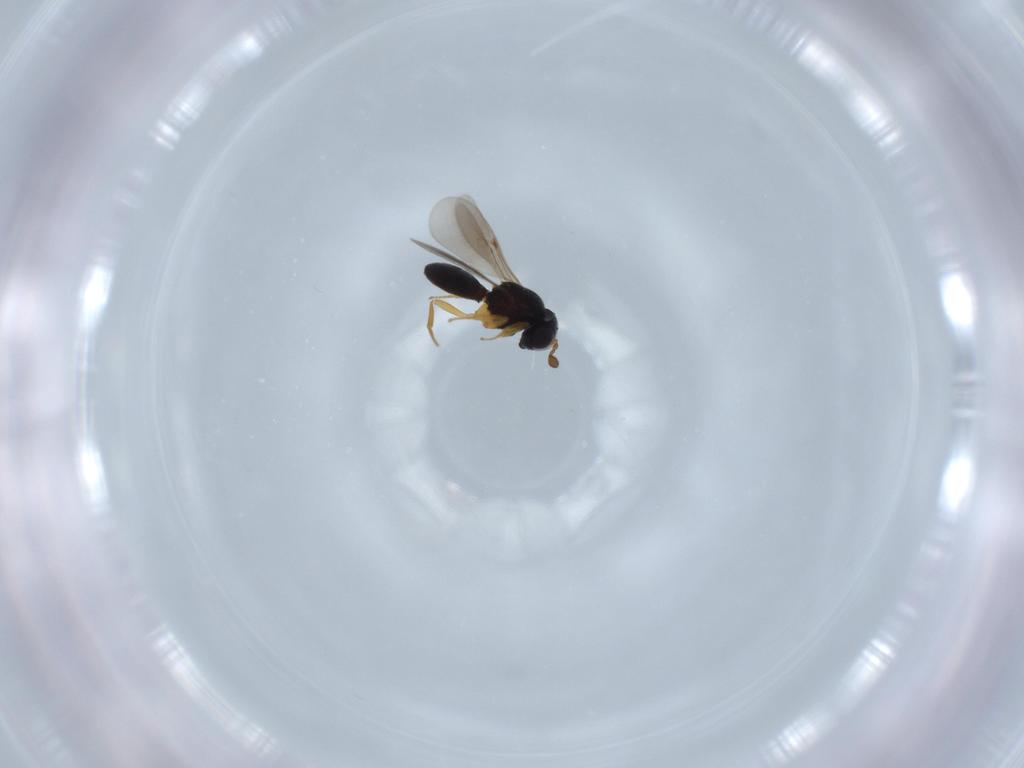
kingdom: Animalia
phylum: Arthropoda
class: Insecta
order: Hymenoptera
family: Scelionidae
